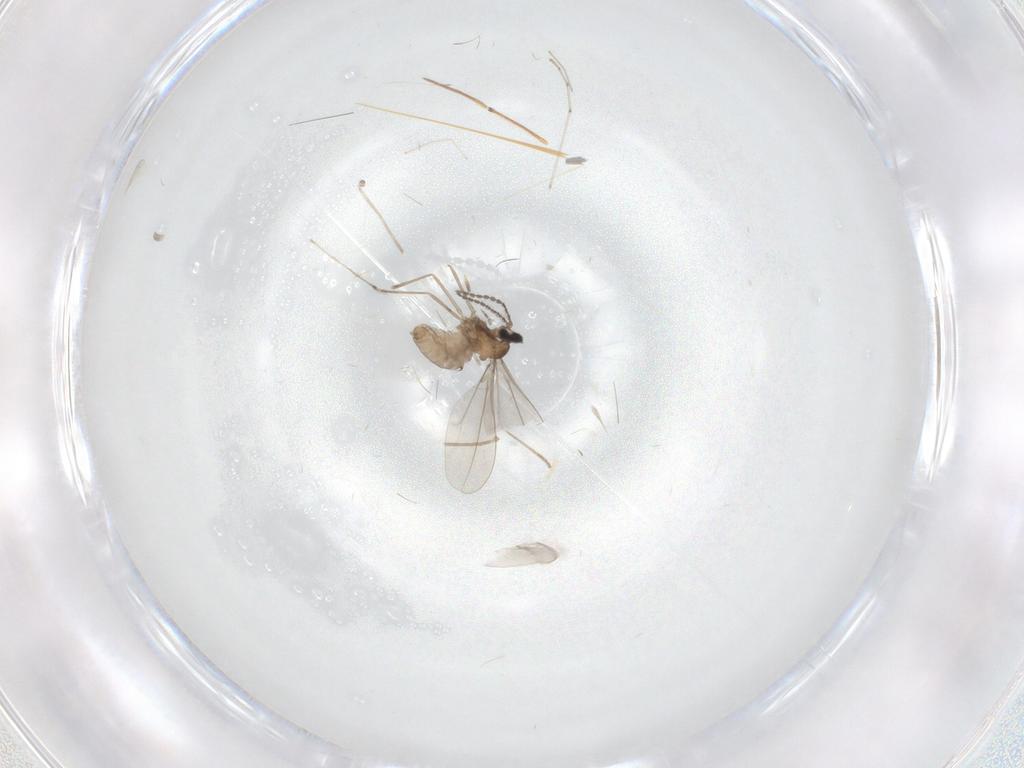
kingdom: Animalia
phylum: Arthropoda
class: Insecta
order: Diptera
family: Cecidomyiidae
